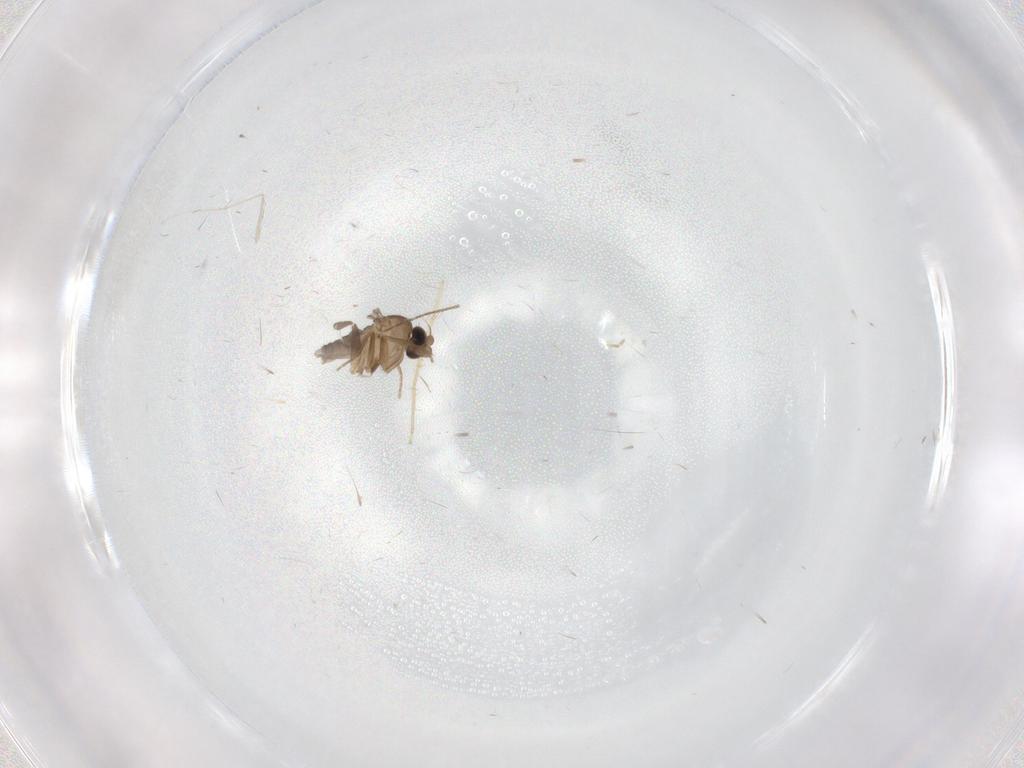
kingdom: Animalia
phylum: Arthropoda
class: Insecta
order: Diptera
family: Chironomidae
